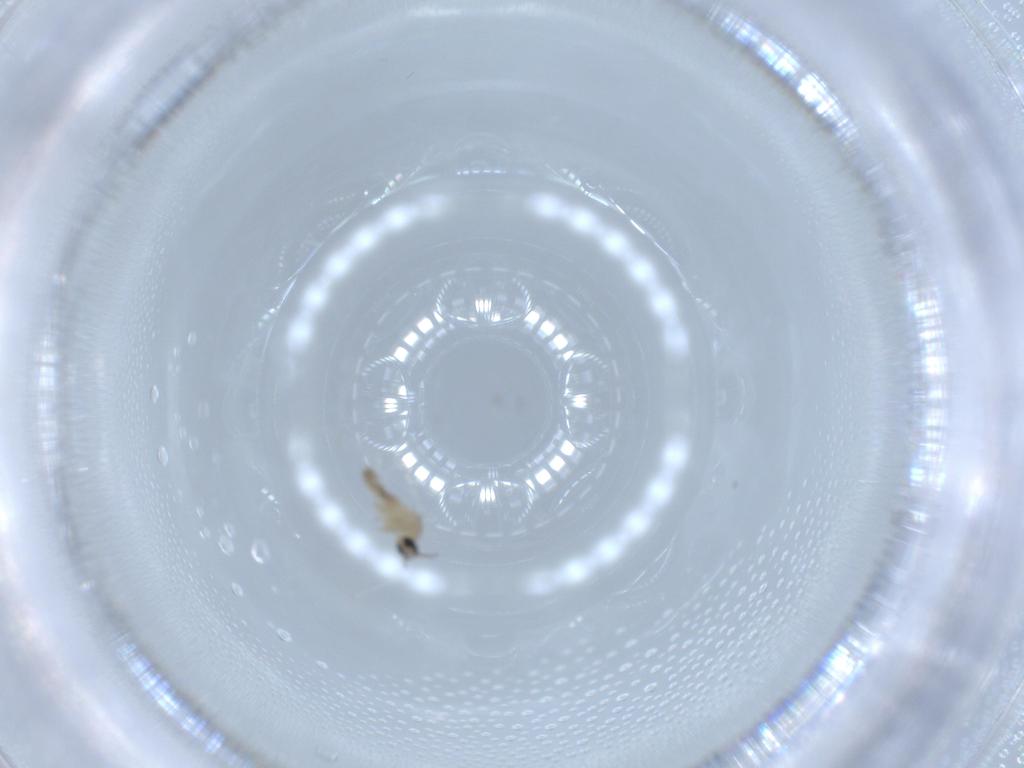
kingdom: Animalia
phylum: Arthropoda
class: Insecta
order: Diptera
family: Cecidomyiidae
